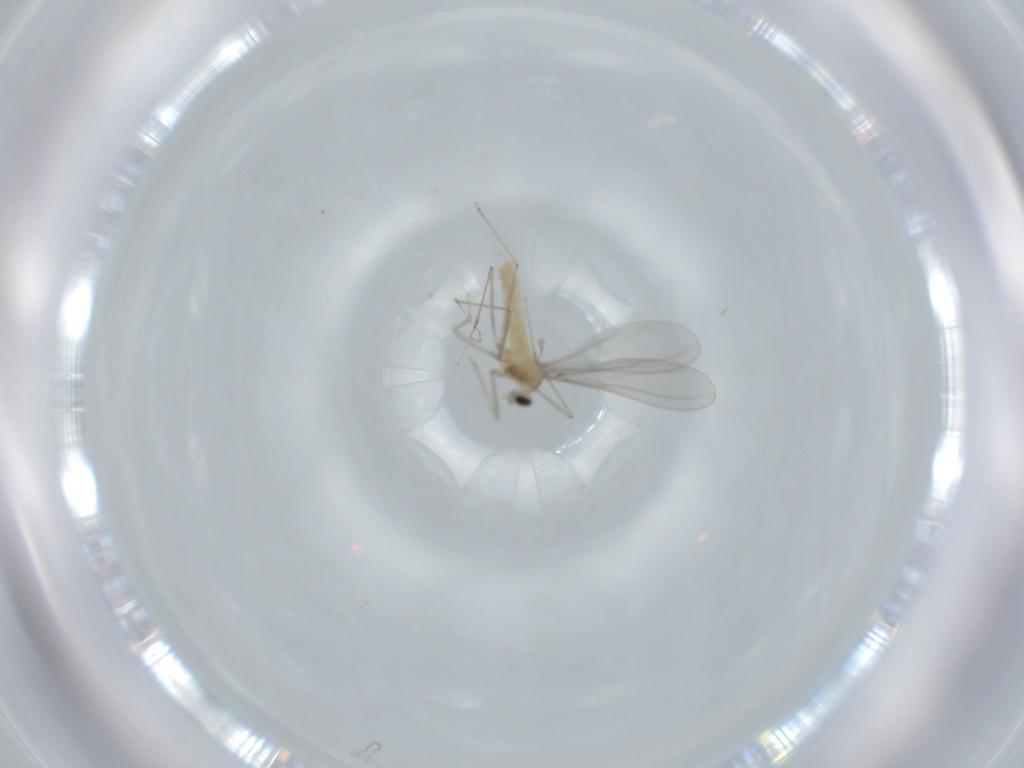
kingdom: Animalia
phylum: Arthropoda
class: Insecta
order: Diptera
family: Cecidomyiidae
